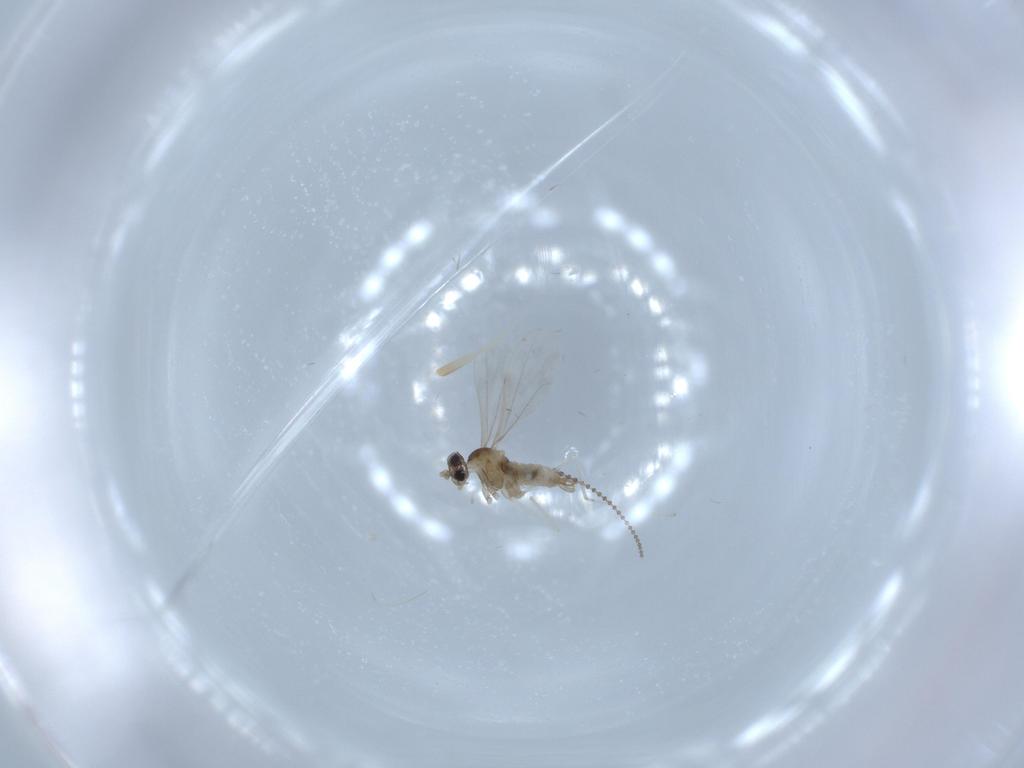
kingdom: Animalia
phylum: Arthropoda
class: Insecta
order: Diptera
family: Cecidomyiidae
